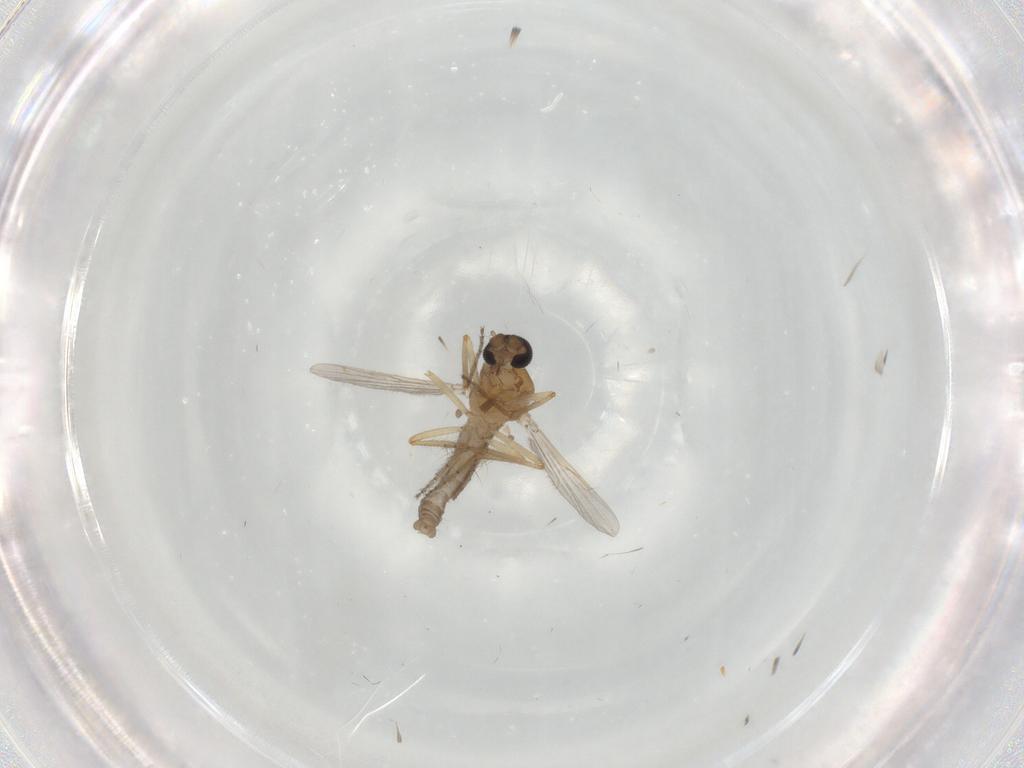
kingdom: Animalia
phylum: Arthropoda
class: Insecta
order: Diptera
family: Ceratopogonidae
